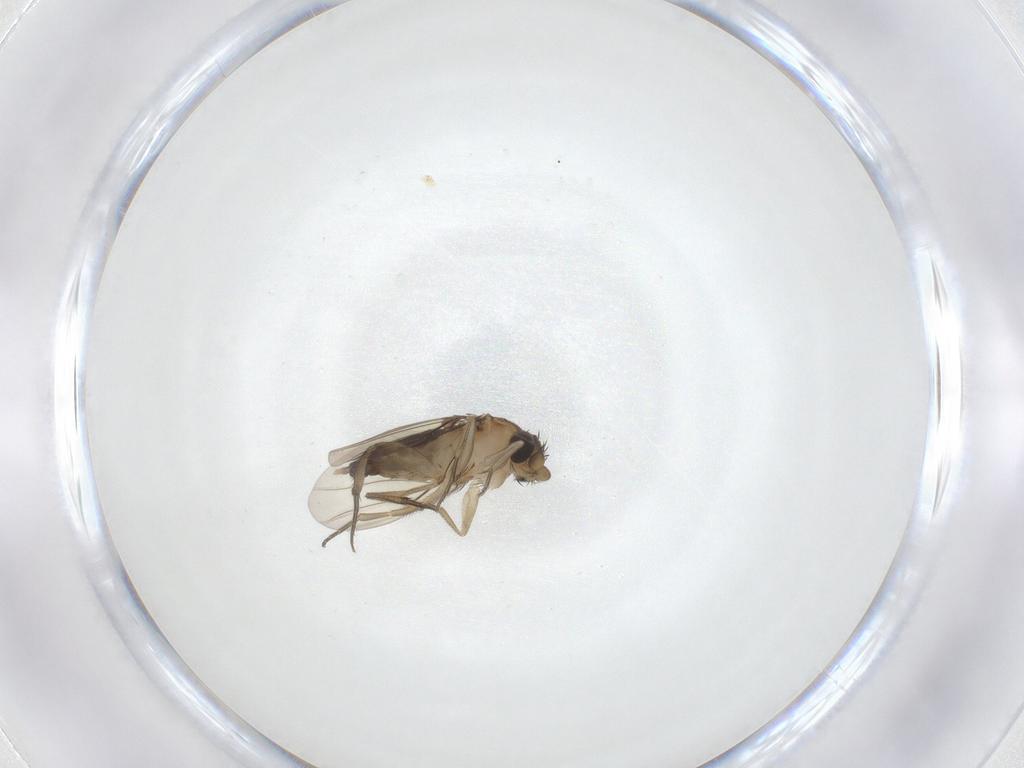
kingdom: Animalia
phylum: Arthropoda
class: Insecta
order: Diptera
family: Phoridae
